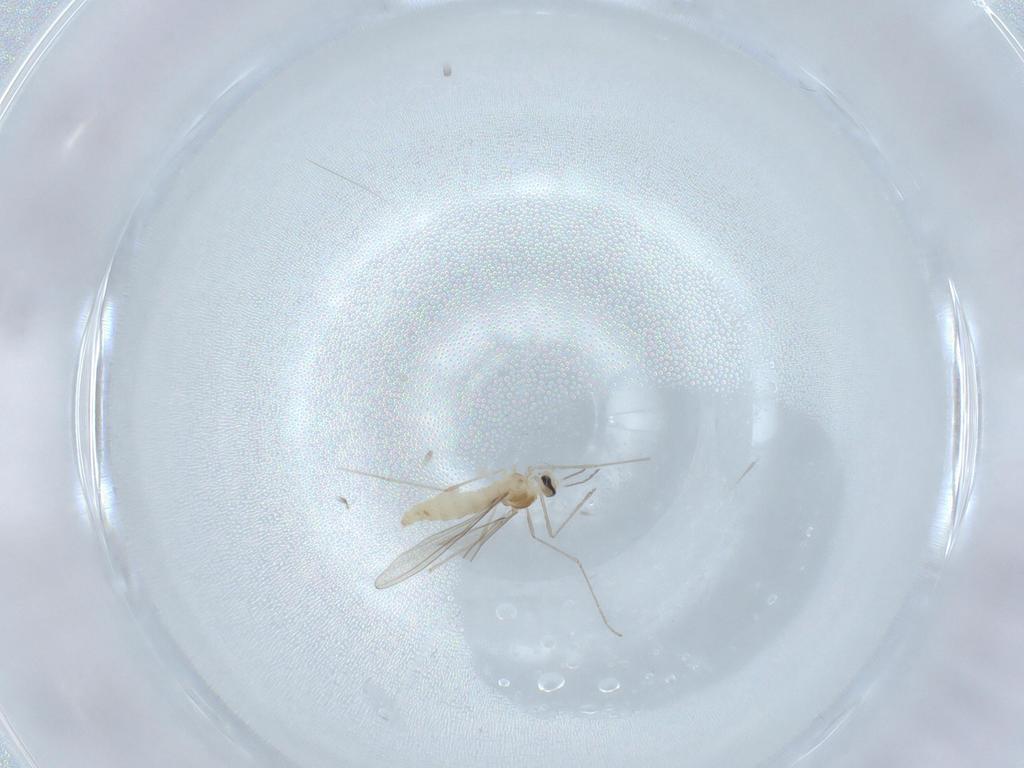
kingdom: Animalia
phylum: Arthropoda
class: Insecta
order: Diptera
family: Cecidomyiidae
